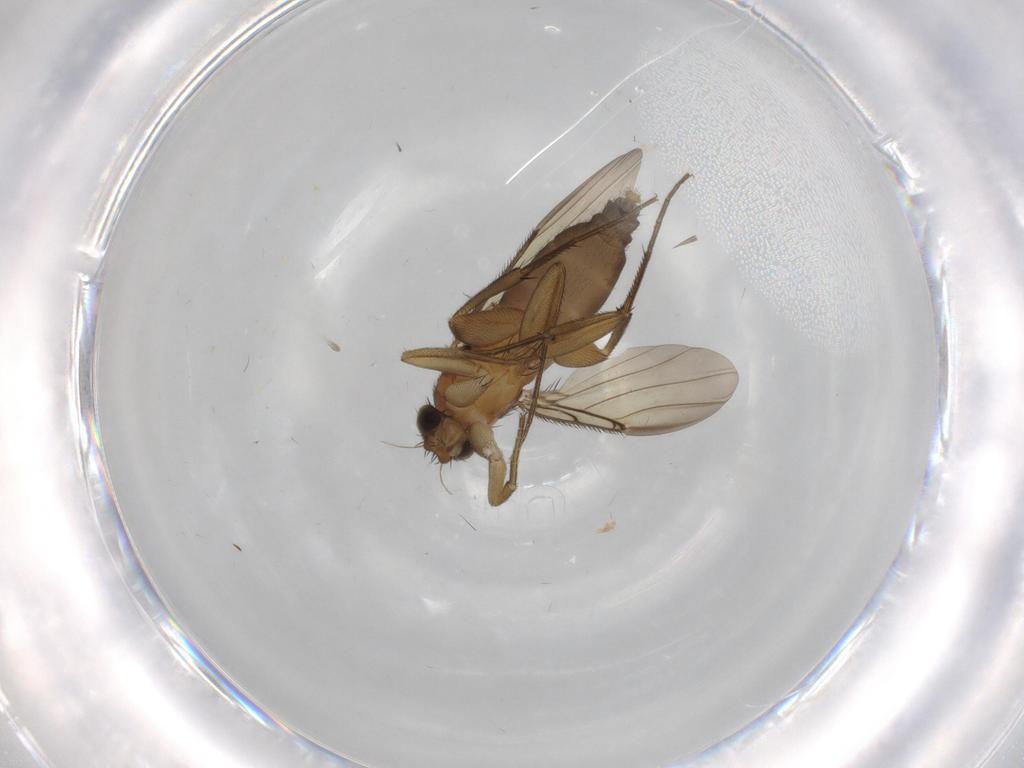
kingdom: Animalia
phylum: Arthropoda
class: Insecta
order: Diptera
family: Phoridae
